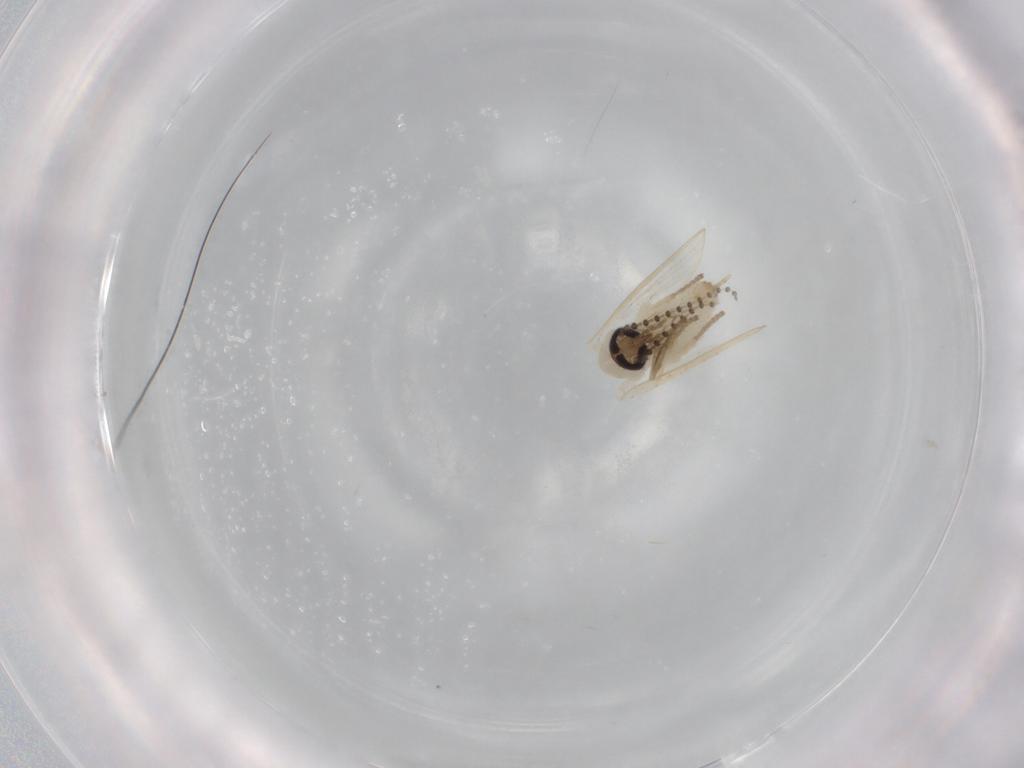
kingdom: Animalia
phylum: Arthropoda
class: Insecta
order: Diptera
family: Psychodidae
